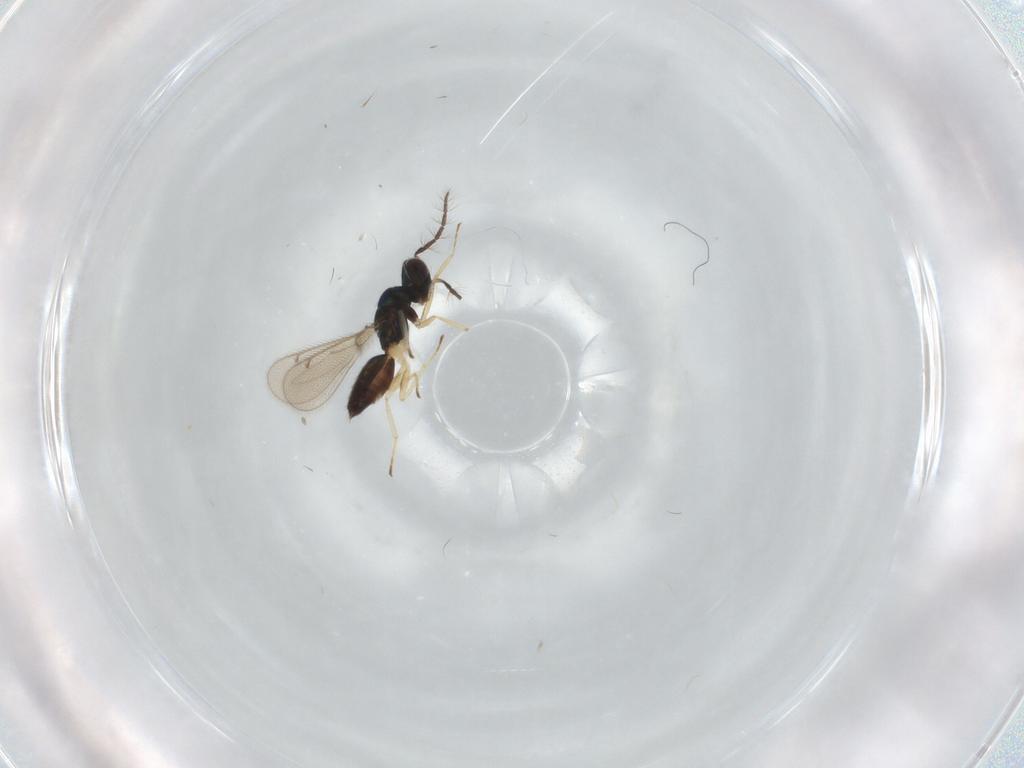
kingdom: Animalia
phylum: Arthropoda
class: Insecta
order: Hymenoptera
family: Eulophidae
